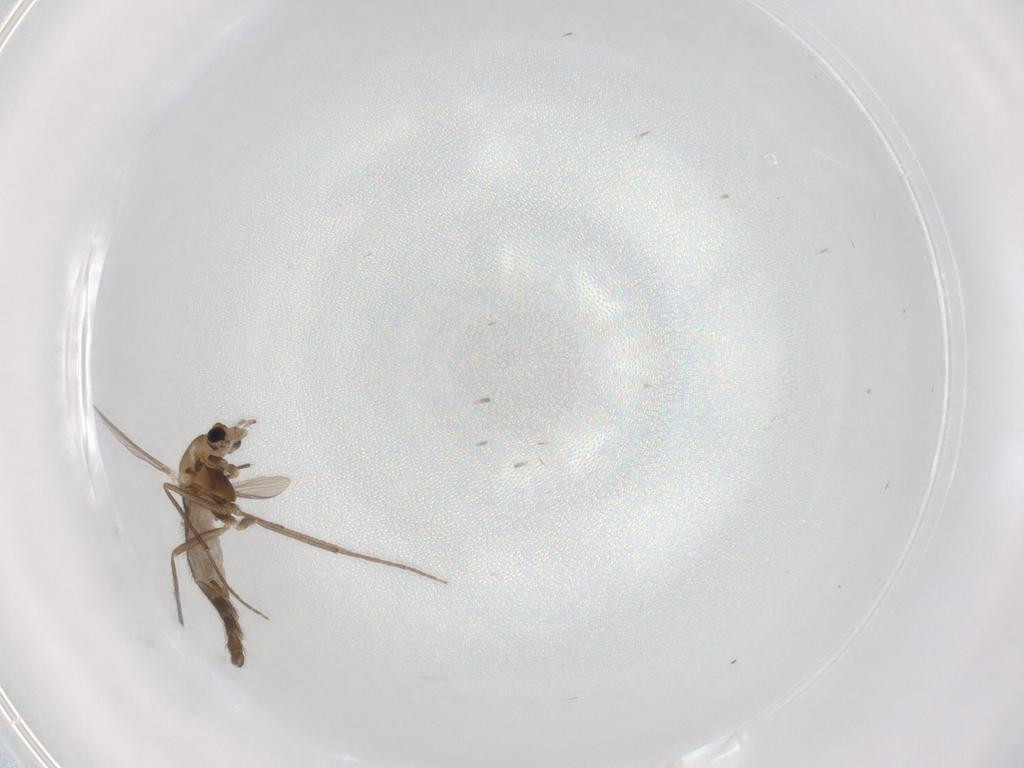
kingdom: Animalia
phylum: Arthropoda
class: Insecta
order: Diptera
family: Chironomidae
